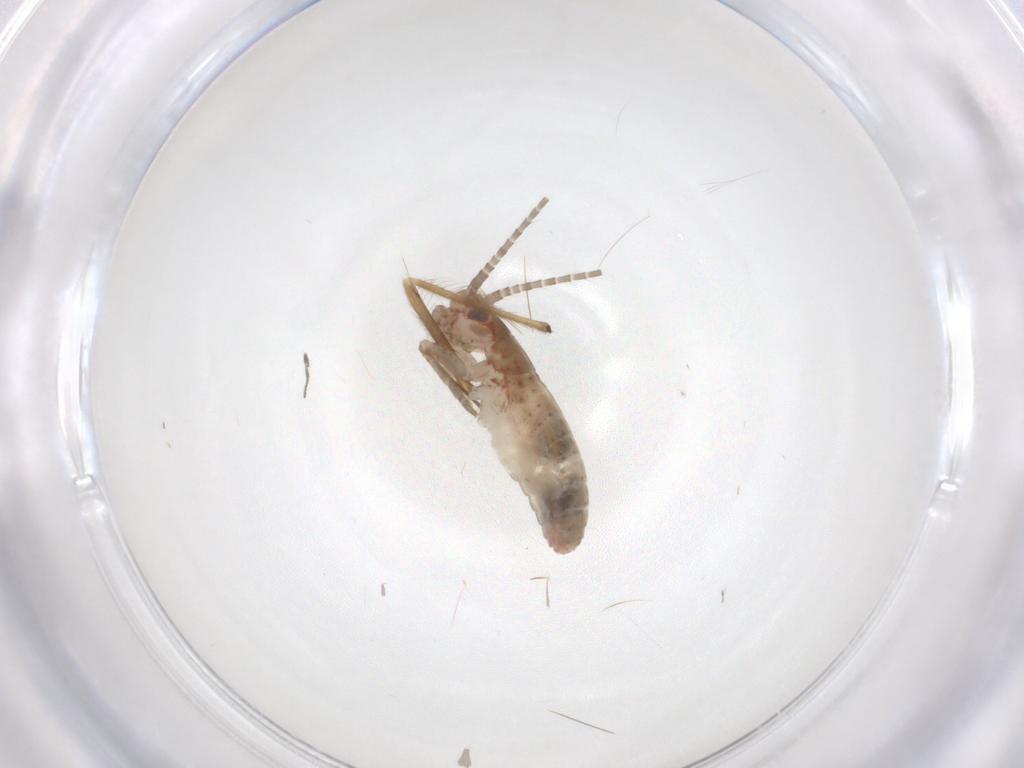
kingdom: Animalia
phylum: Arthropoda
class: Insecta
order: Orthoptera
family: Mogoplistidae
